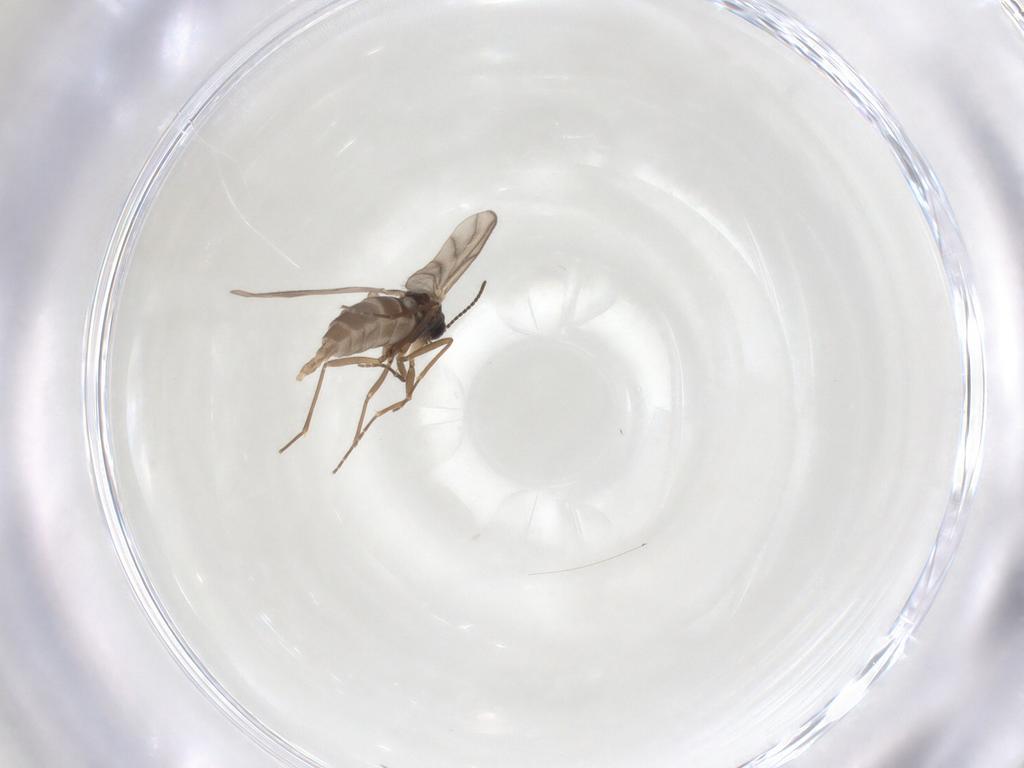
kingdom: Animalia
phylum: Arthropoda
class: Insecta
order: Diptera
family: Sciaridae
